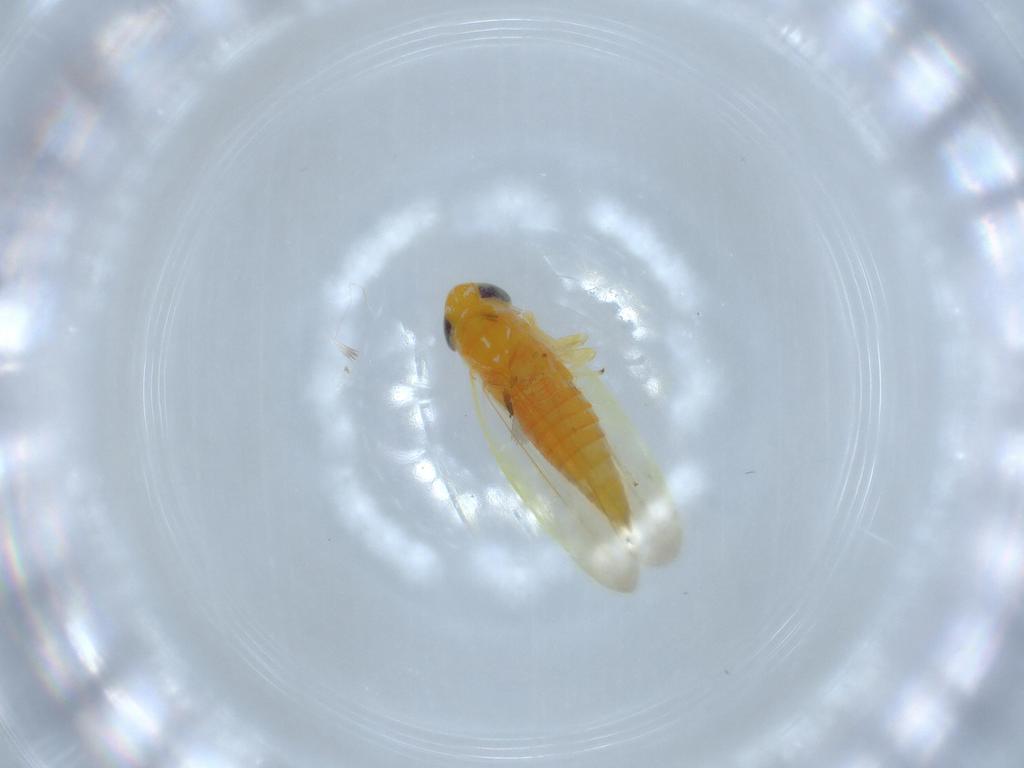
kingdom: Animalia
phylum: Arthropoda
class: Insecta
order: Hemiptera
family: Cicadellidae
